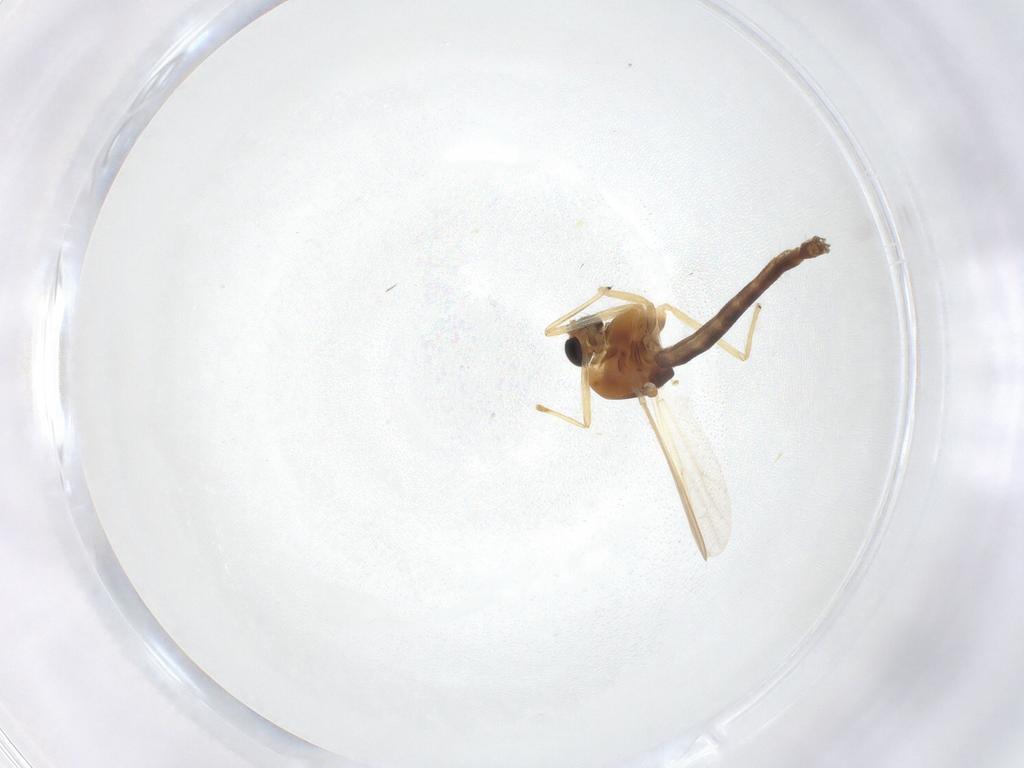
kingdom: Animalia
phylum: Arthropoda
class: Insecta
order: Diptera
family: Chironomidae
